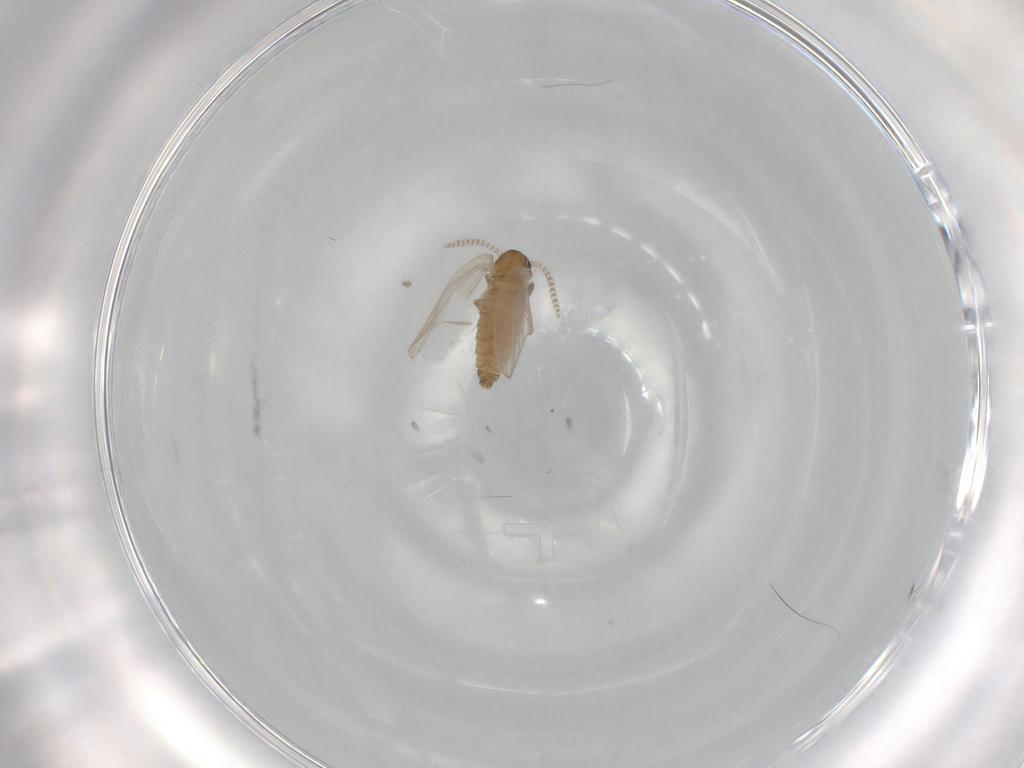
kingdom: Animalia
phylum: Arthropoda
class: Insecta
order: Diptera
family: Psychodidae
